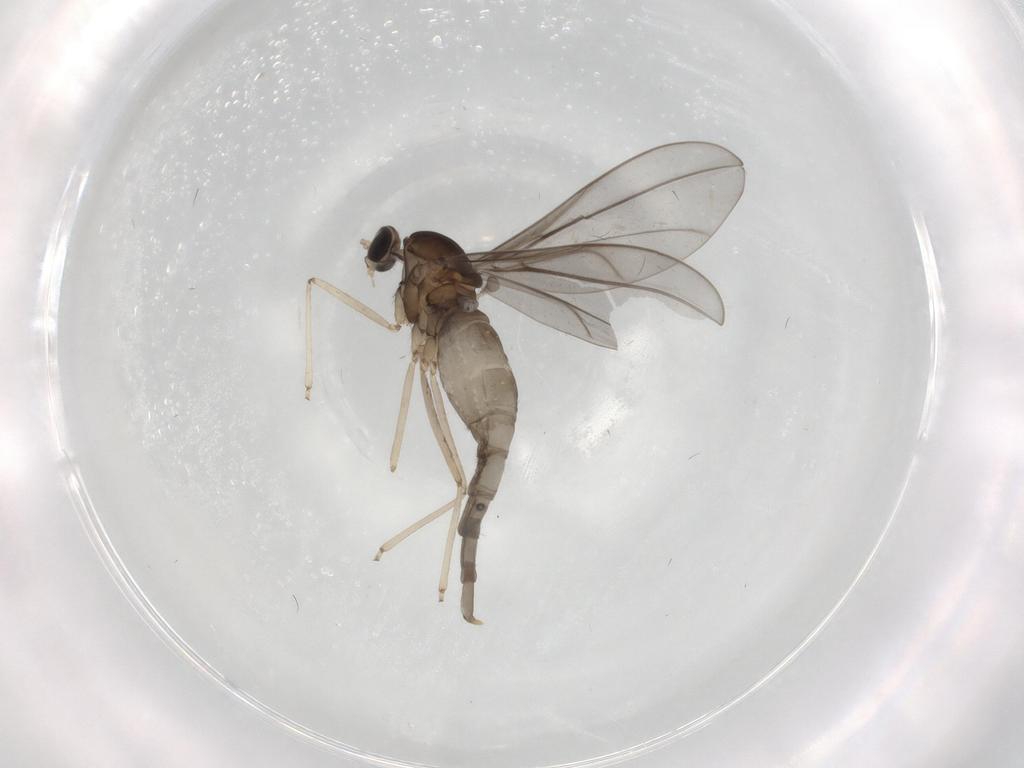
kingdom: Animalia
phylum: Arthropoda
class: Insecta
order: Diptera
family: Cecidomyiidae
